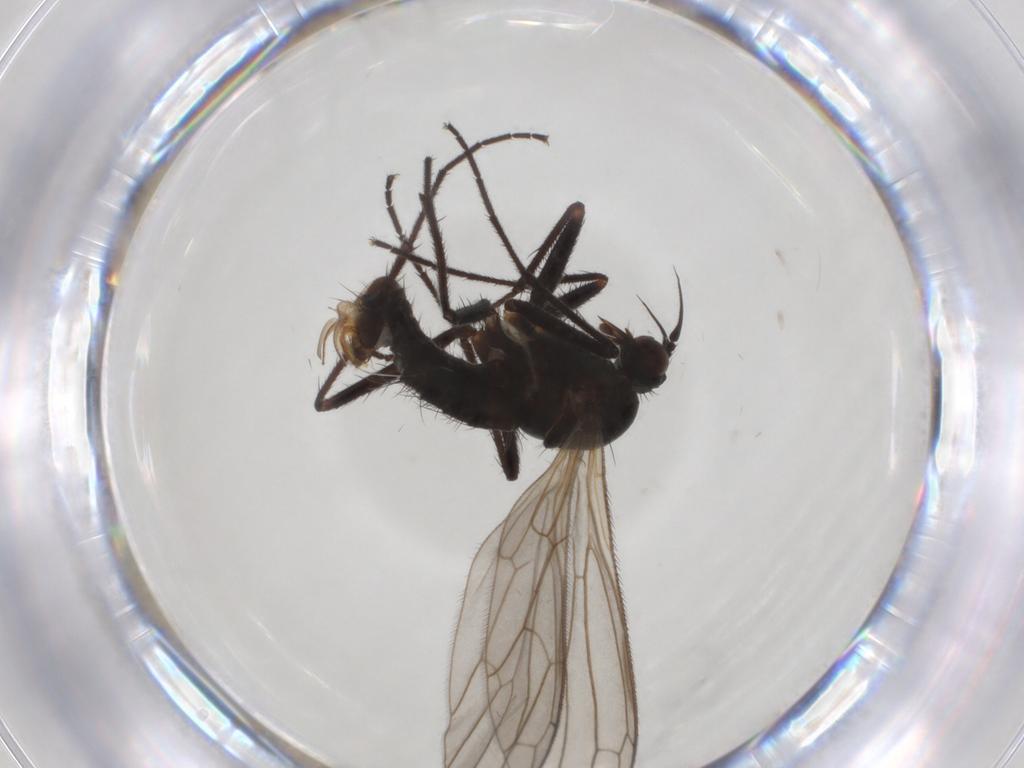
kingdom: Animalia
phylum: Arthropoda
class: Insecta
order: Diptera
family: Empididae
